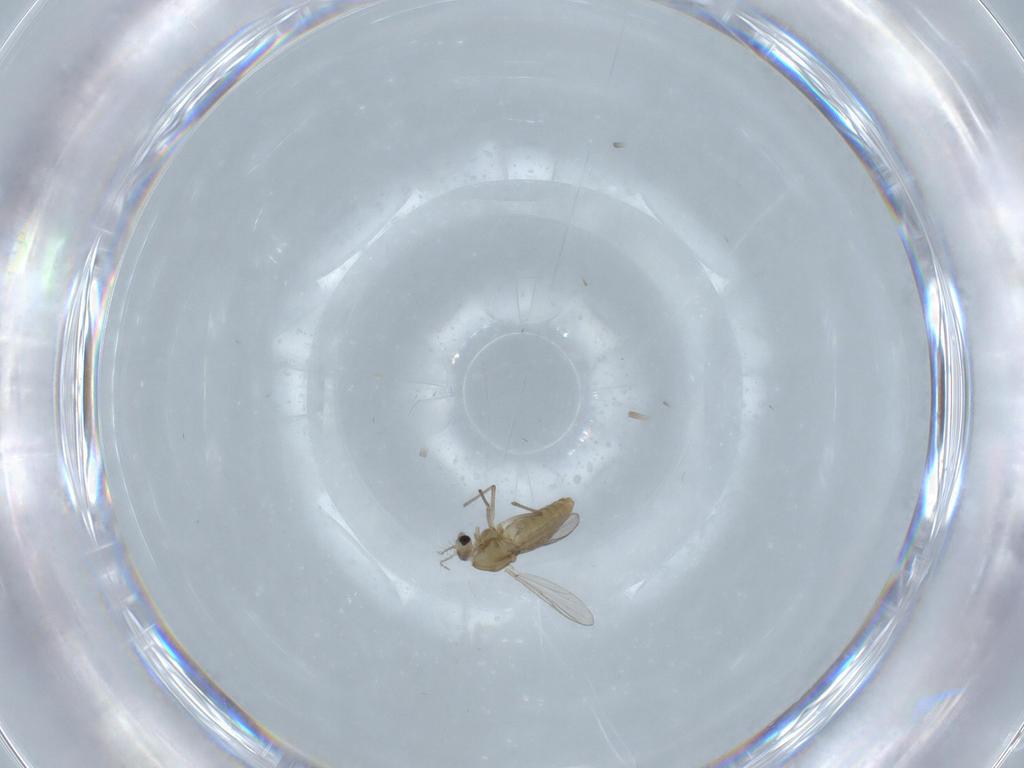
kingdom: Animalia
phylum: Arthropoda
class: Insecta
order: Diptera
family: Chironomidae
